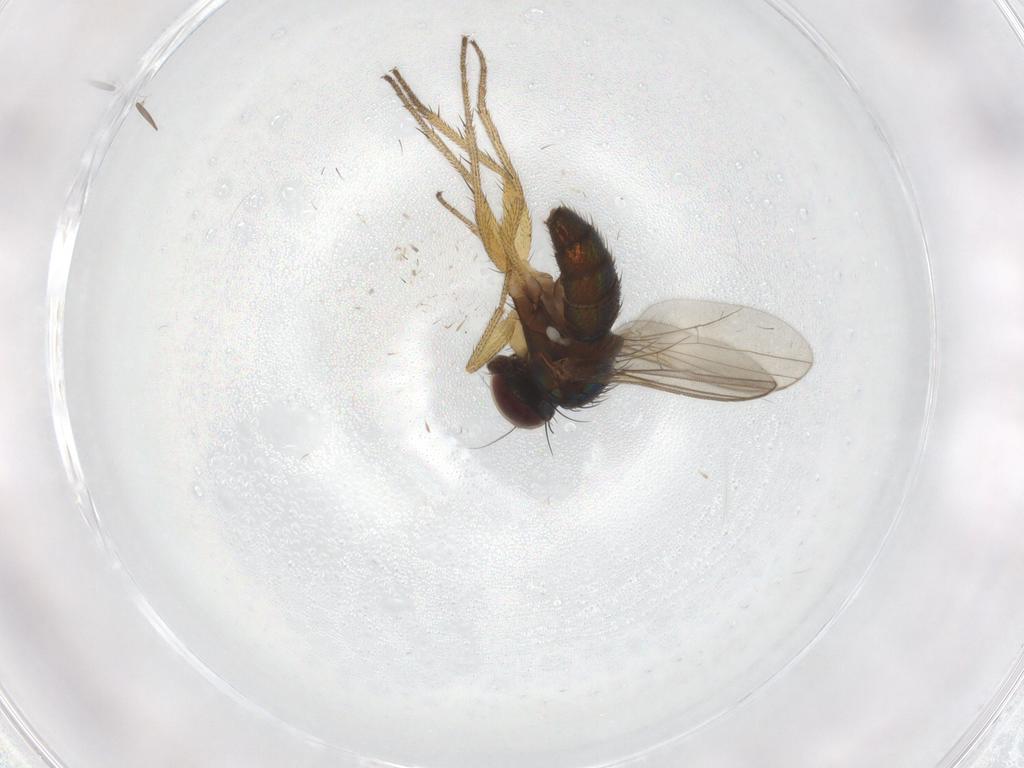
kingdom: Animalia
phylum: Arthropoda
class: Insecta
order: Diptera
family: Dolichopodidae
